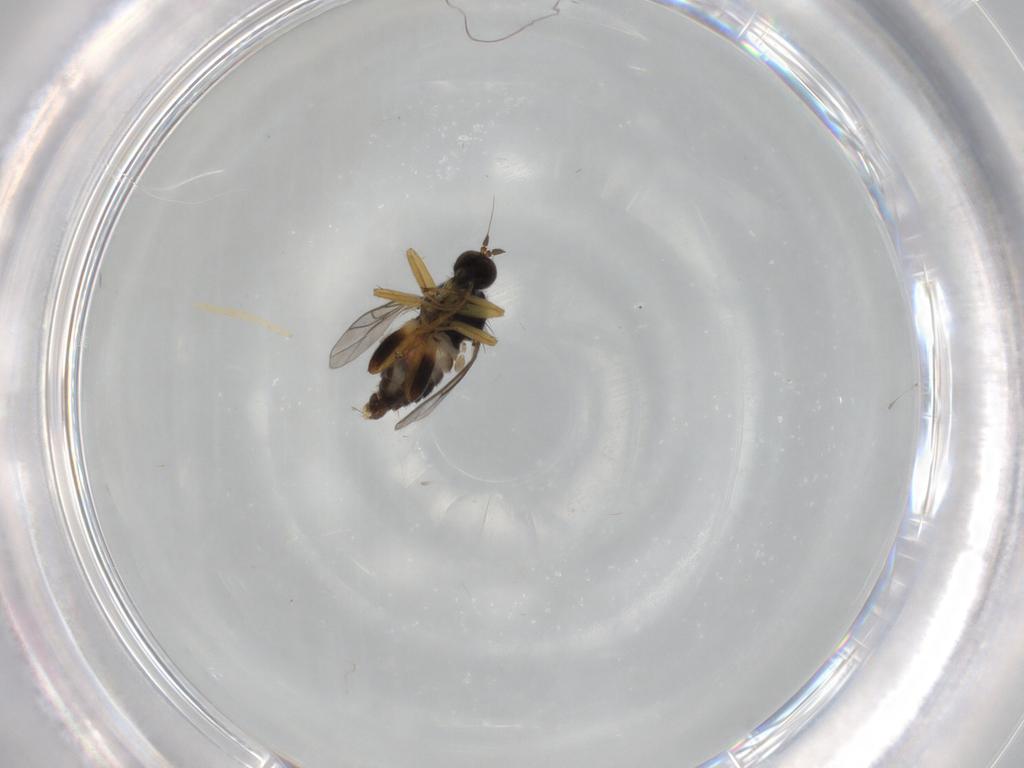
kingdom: Animalia
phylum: Arthropoda
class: Insecta
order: Diptera
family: Hybotidae
